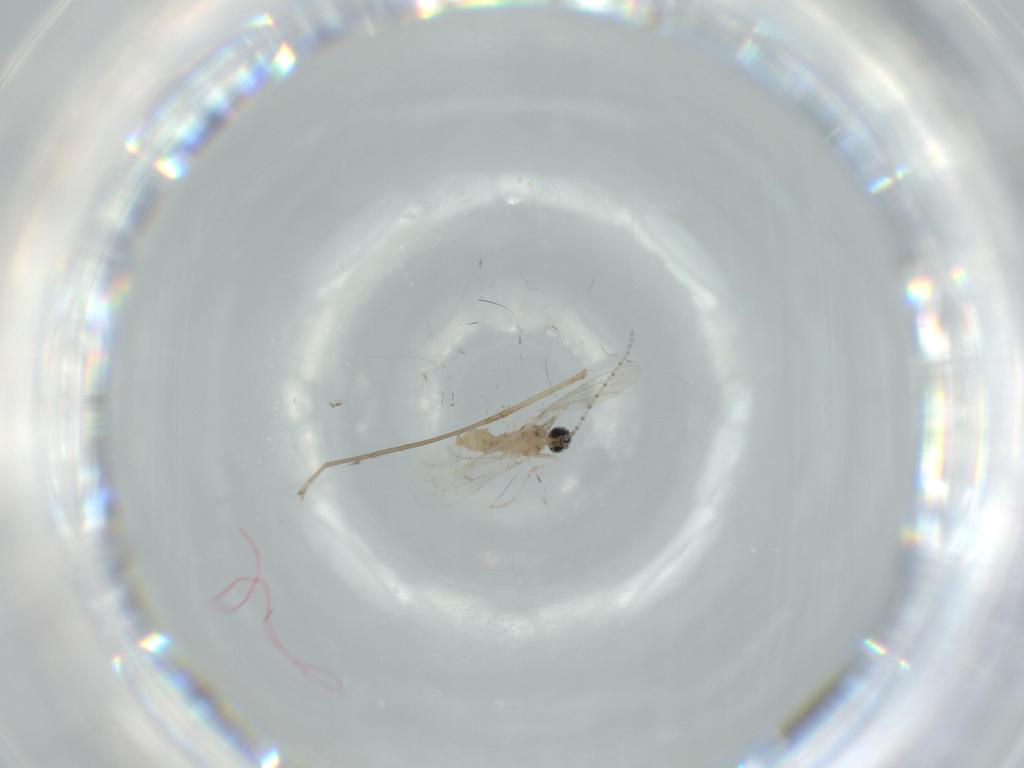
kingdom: Animalia
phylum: Arthropoda
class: Insecta
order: Diptera
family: Cecidomyiidae
